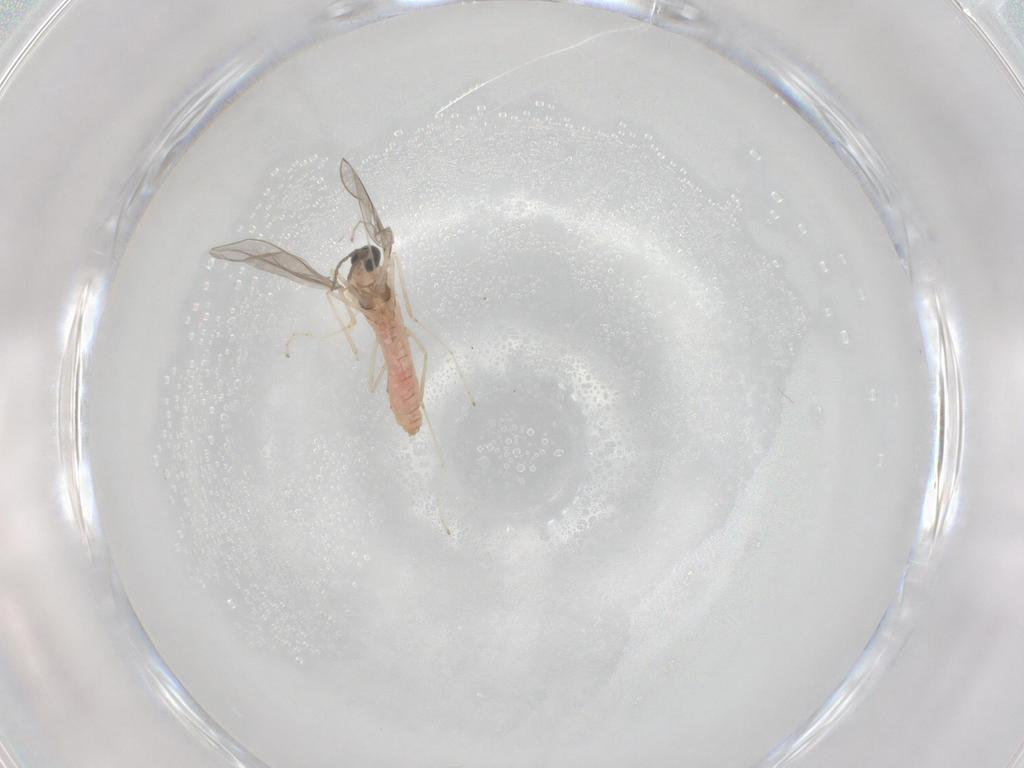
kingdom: Animalia
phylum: Arthropoda
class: Insecta
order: Diptera
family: Cecidomyiidae
